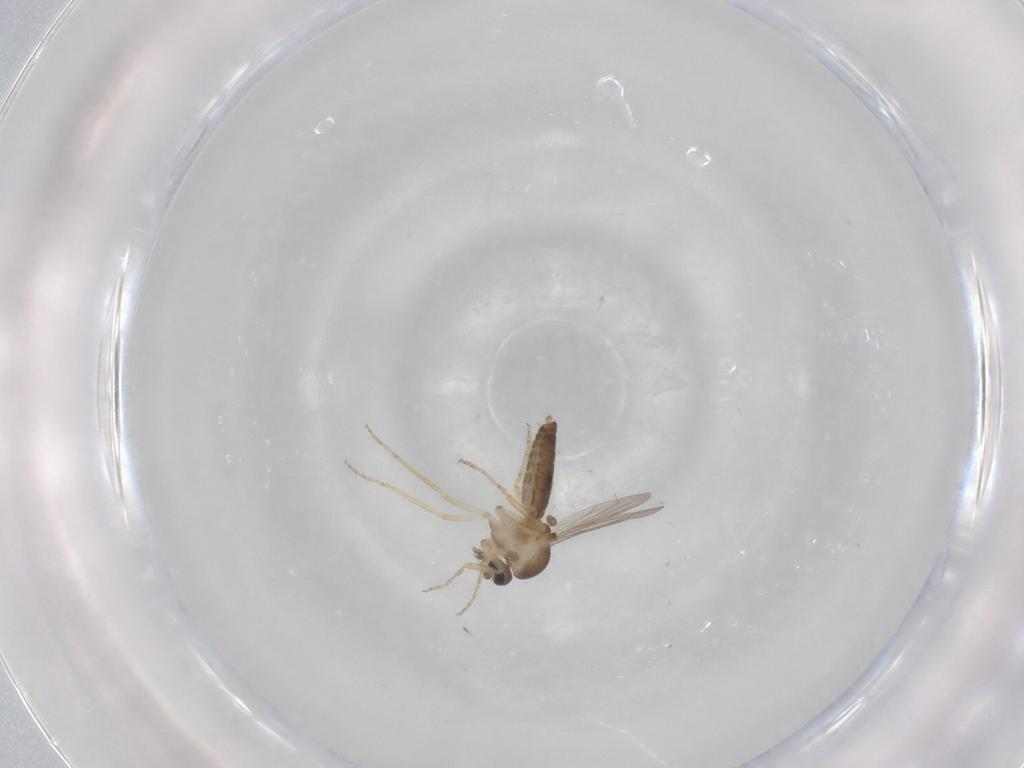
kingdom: Animalia
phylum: Arthropoda
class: Insecta
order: Diptera
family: Ceratopogonidae
